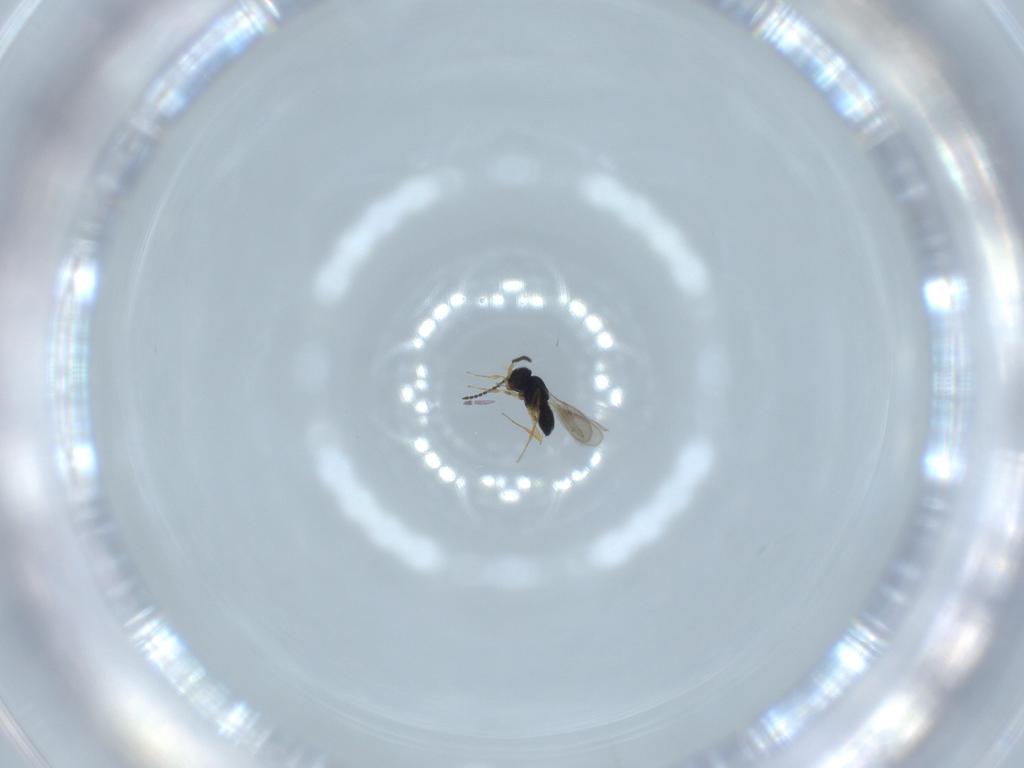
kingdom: Animalia
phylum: Arthropoda
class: Insecta
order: Hymenoptera
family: Scelionidae
